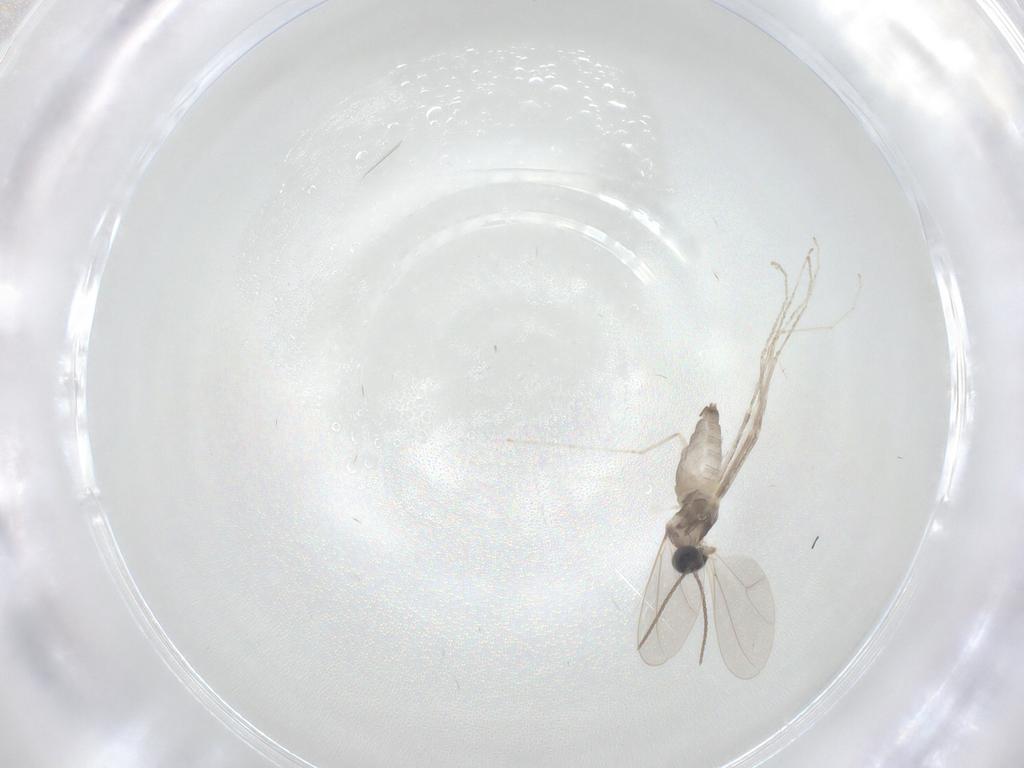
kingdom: Animalia
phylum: Arthropoda
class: Insecta
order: Diptera
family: Cecidomyiidae
